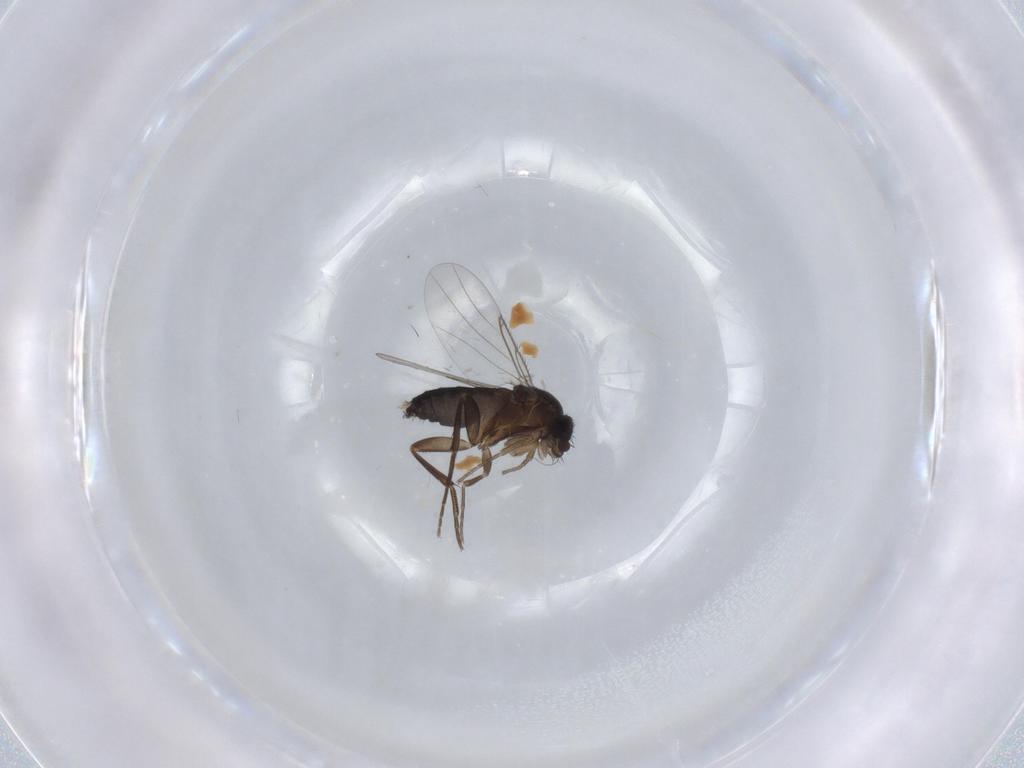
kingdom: Animalia
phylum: Arthropoda
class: Insecta
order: Diptera
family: Phoridae
